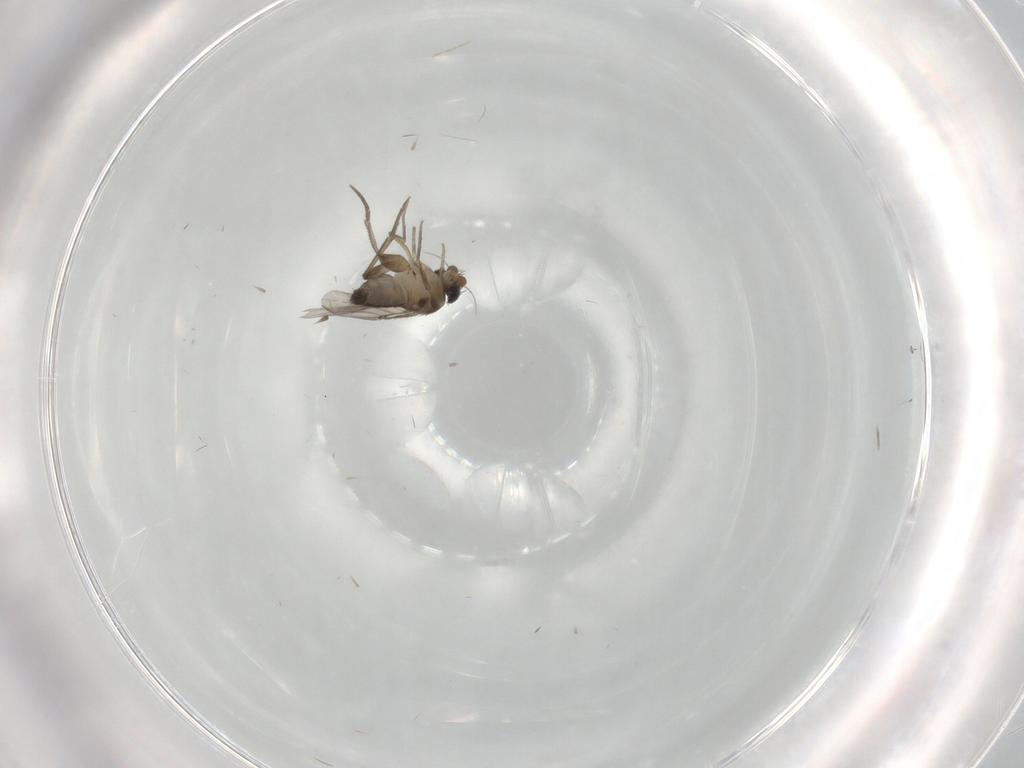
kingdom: Animalia
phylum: Arthropoda
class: Insecta
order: Diptera
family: Phoridae
